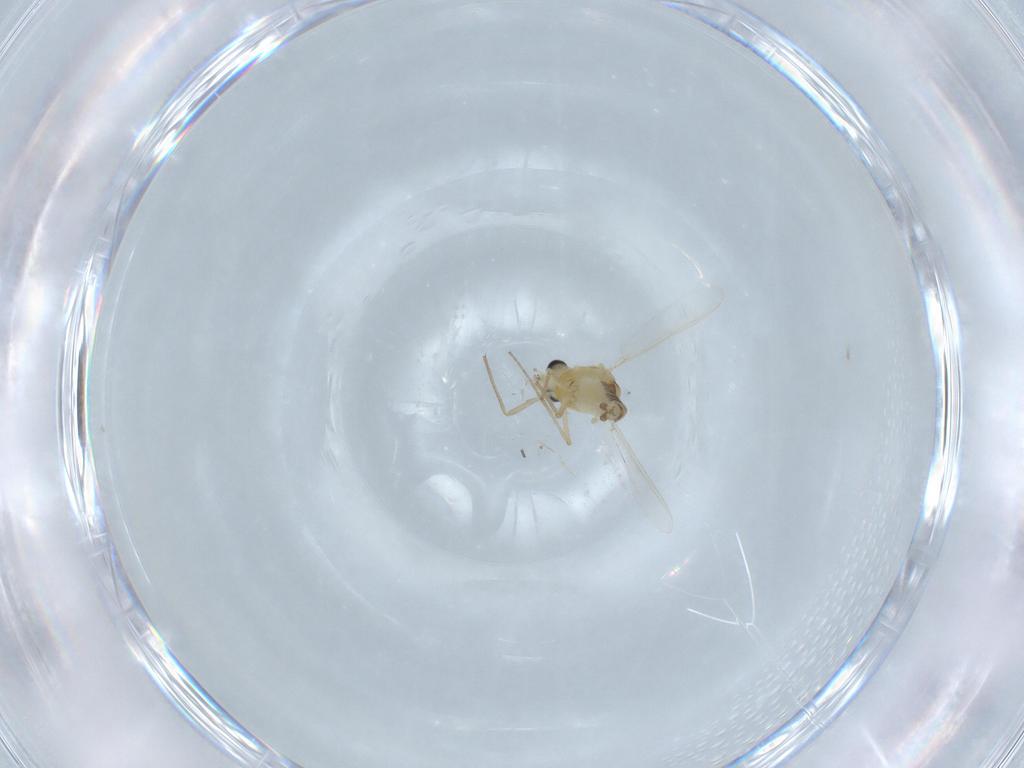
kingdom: Animalia
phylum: Arthropoda
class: Insecta
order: Diptera
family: Chironomidae
